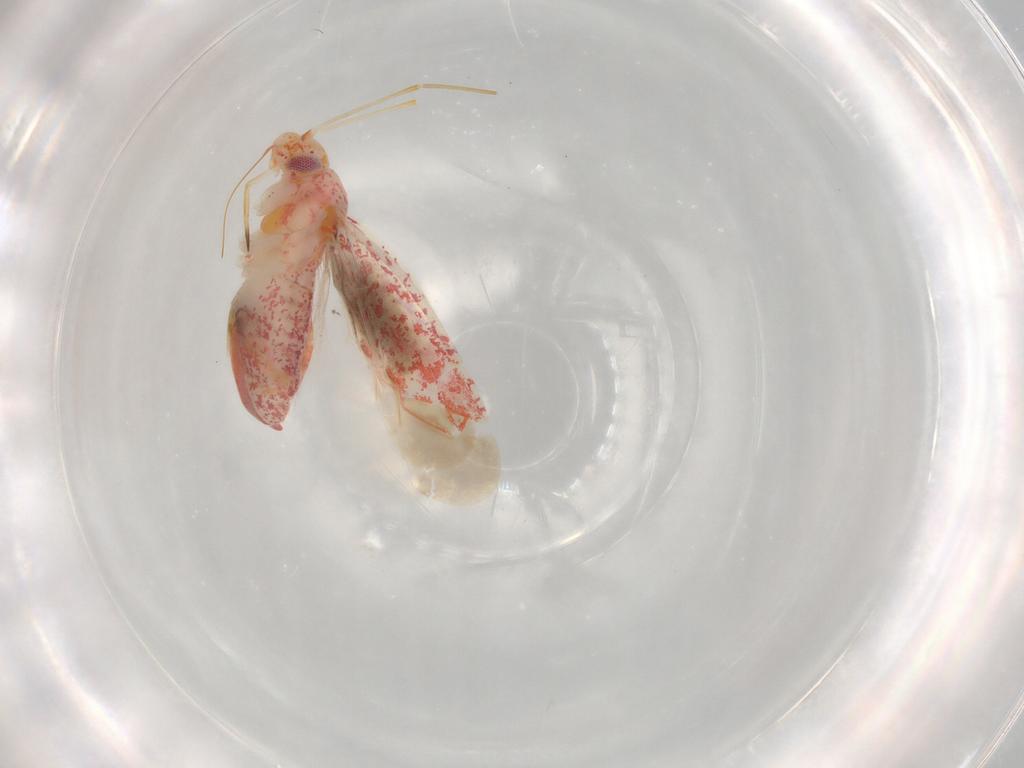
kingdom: Animalia
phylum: Arthropoda
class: Insecta
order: Hemiptera
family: Miridae
